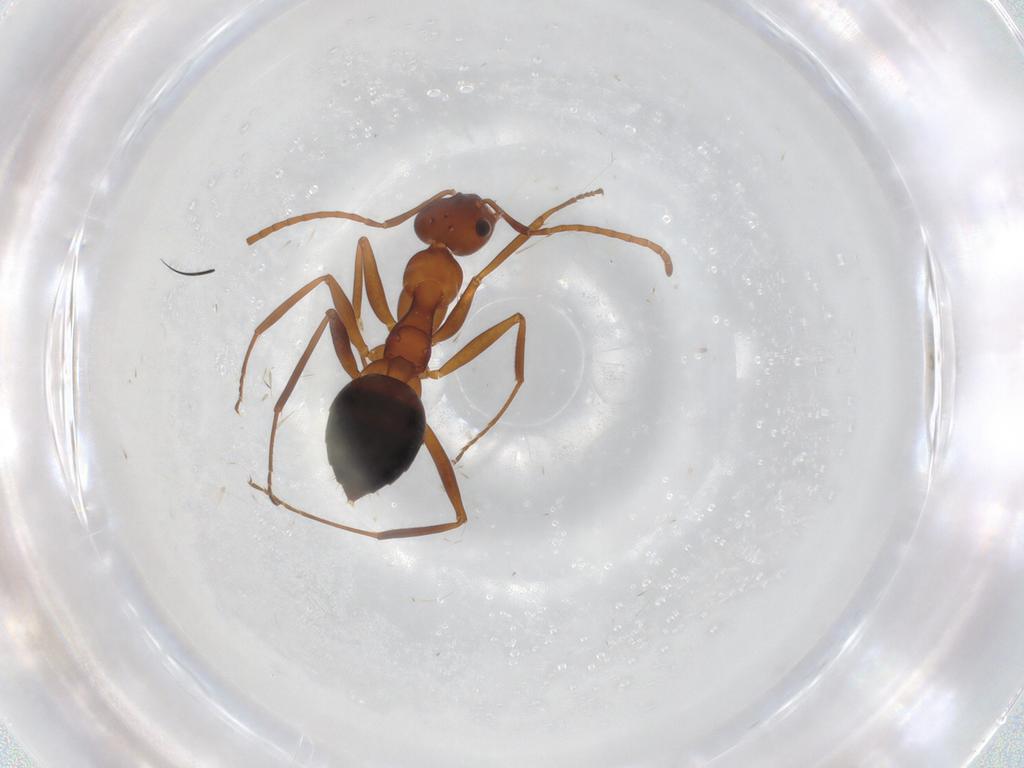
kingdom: Animalia
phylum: Arthropoda
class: Insecta
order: Hymenoptera
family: Formicidae
